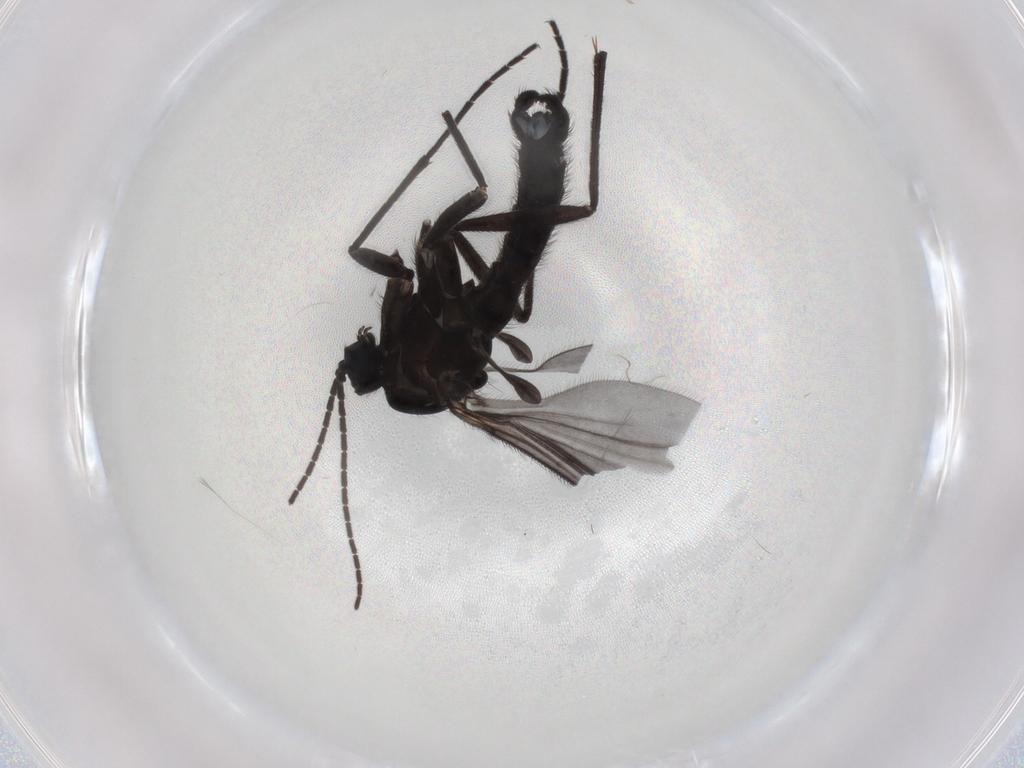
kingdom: Animalia
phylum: Arthropoda
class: Insecta
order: Diptera
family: Sciaridae
